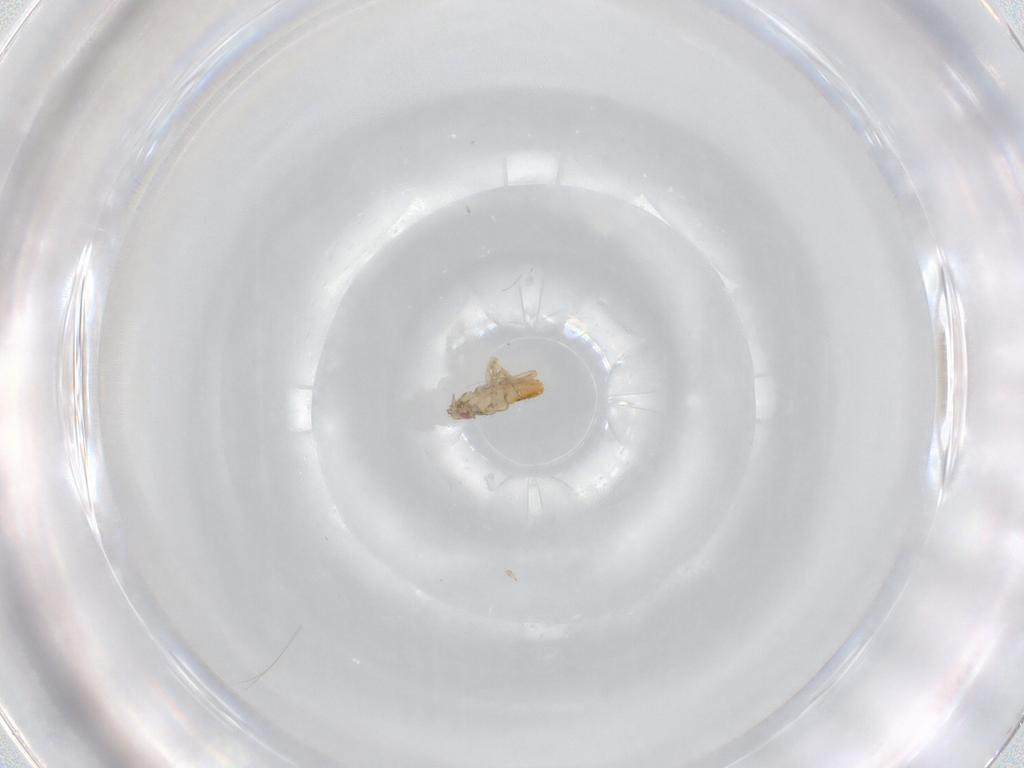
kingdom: Animalia
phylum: Arthropoda
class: Insecta
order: Hemiptera
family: Delphacidae
